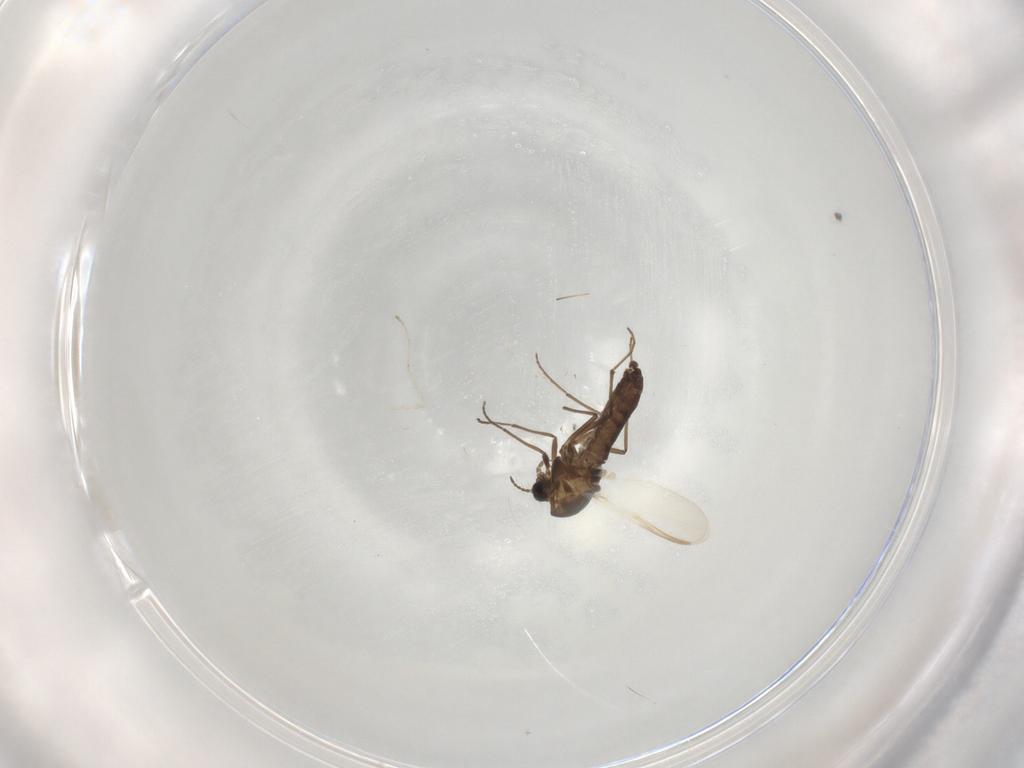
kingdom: Animalia
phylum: Arthropoda
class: Insecta
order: Diptera
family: Chironomidae
